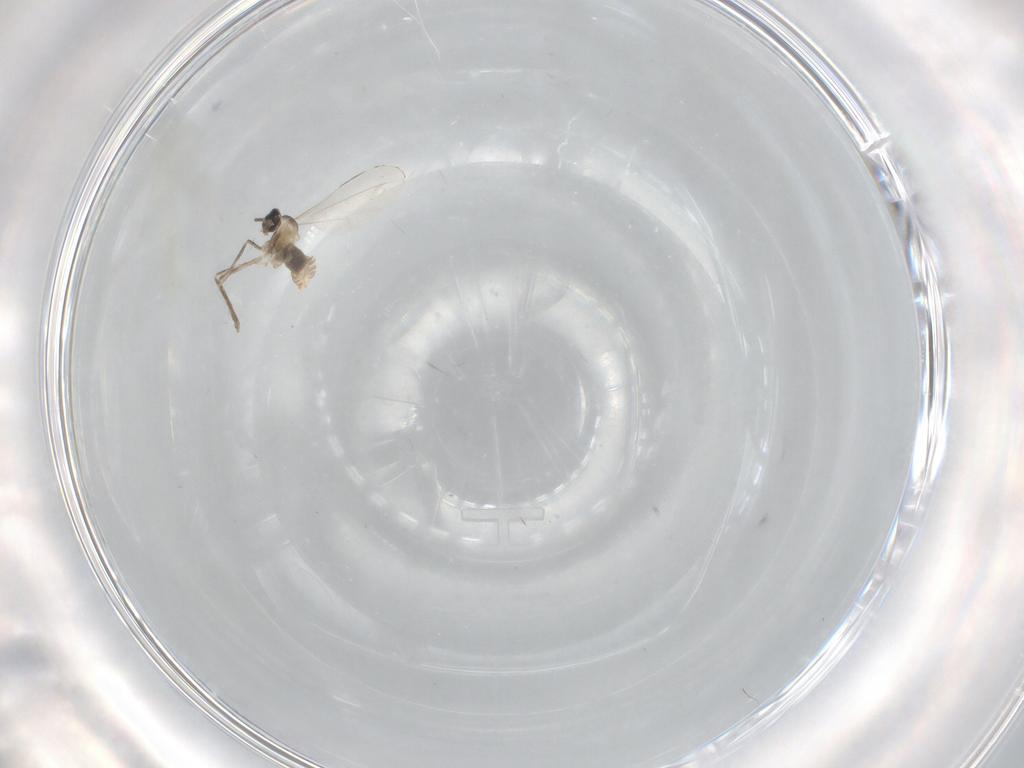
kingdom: Animalia
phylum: Arthropoda
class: Insecta
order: Diptera
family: Cecidomyiidae
